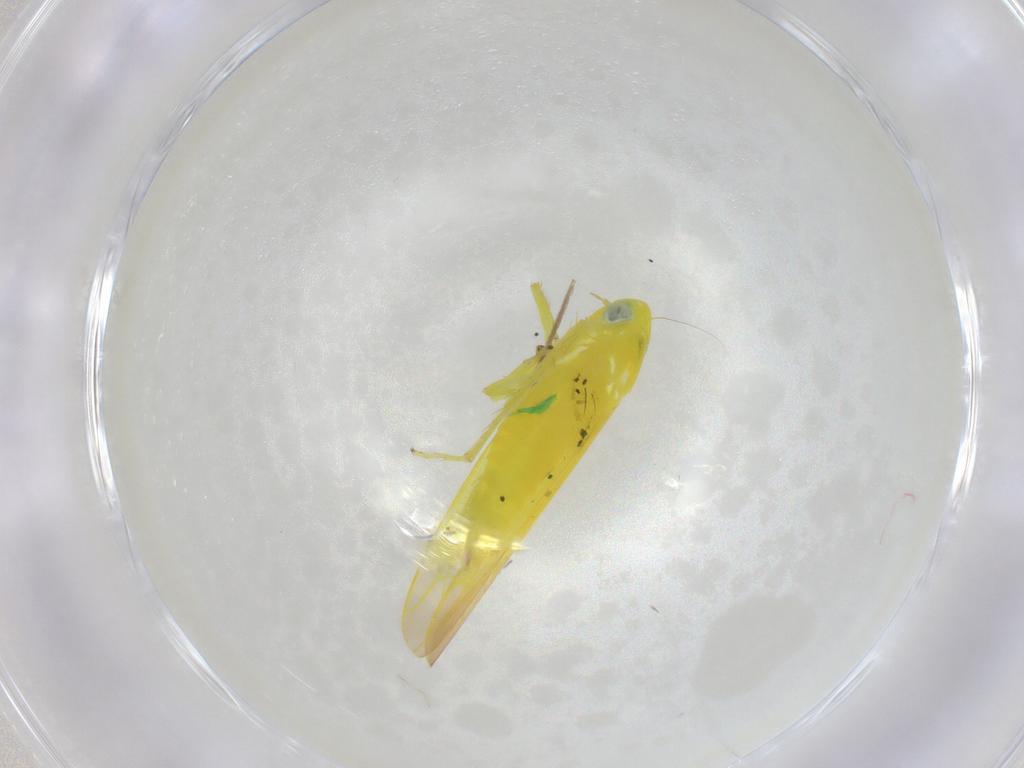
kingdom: Animalia
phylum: Arthropoda
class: Insecta
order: Hemiptera
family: Cicadellidae
